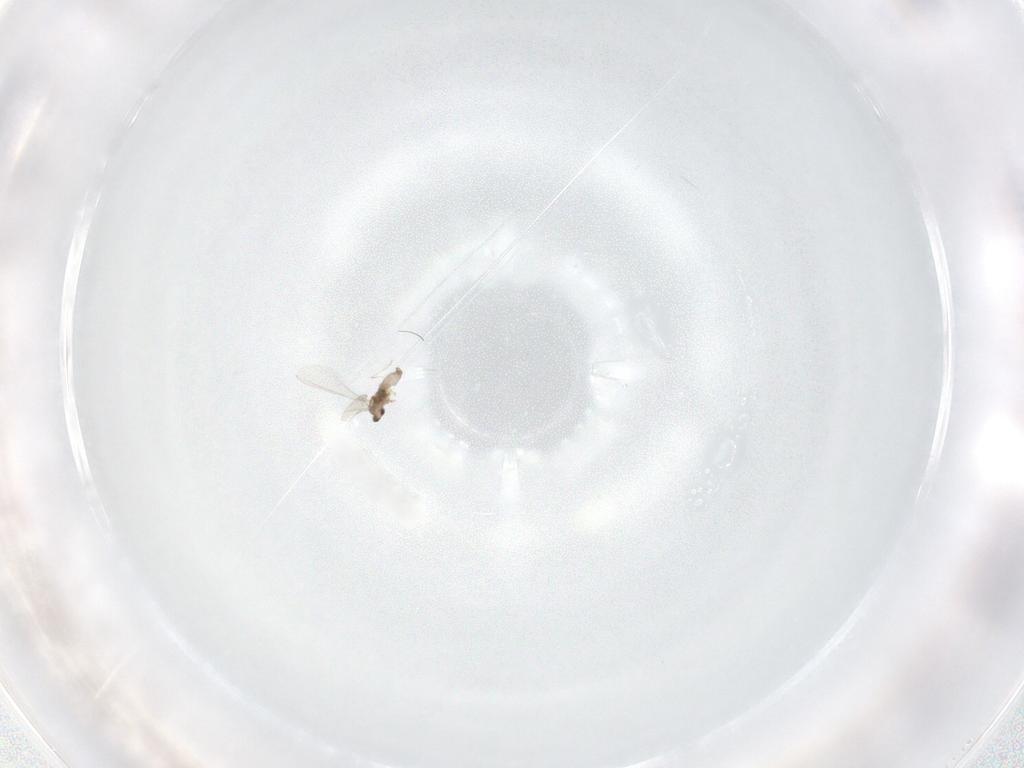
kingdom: Animalia
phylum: Arthropoda
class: Insecta
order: Diptera
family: Cecidomyiidae
